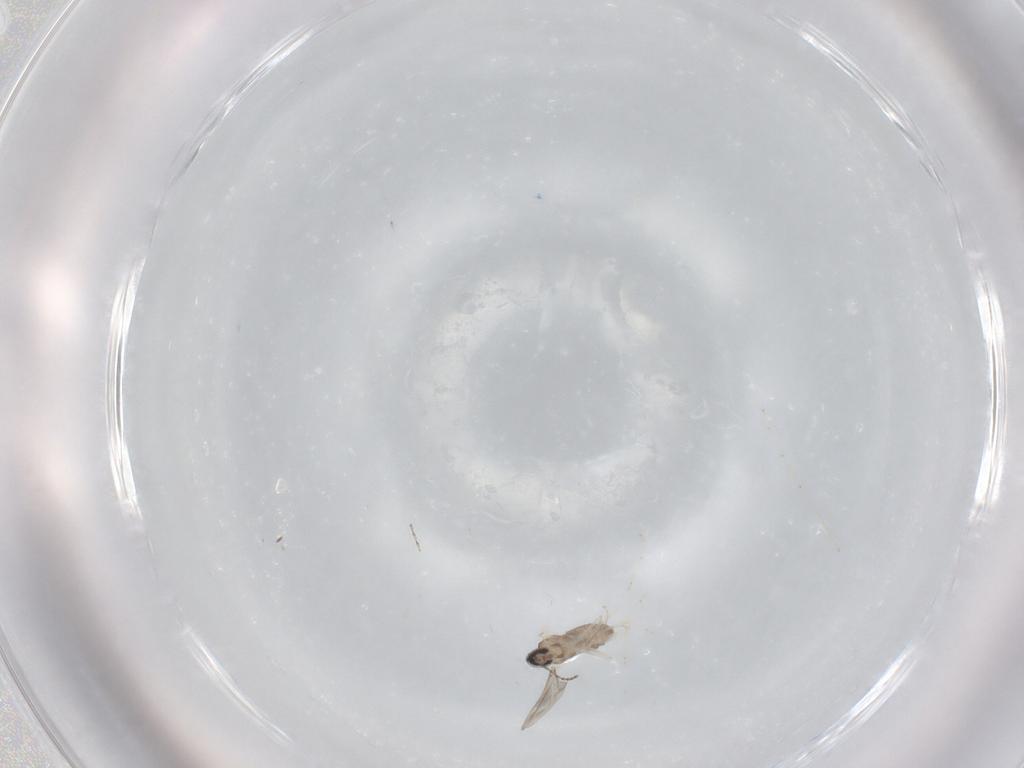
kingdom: Animalia
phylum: Arthropoda
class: Insecta
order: Diptera
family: Cecidomyiidae
